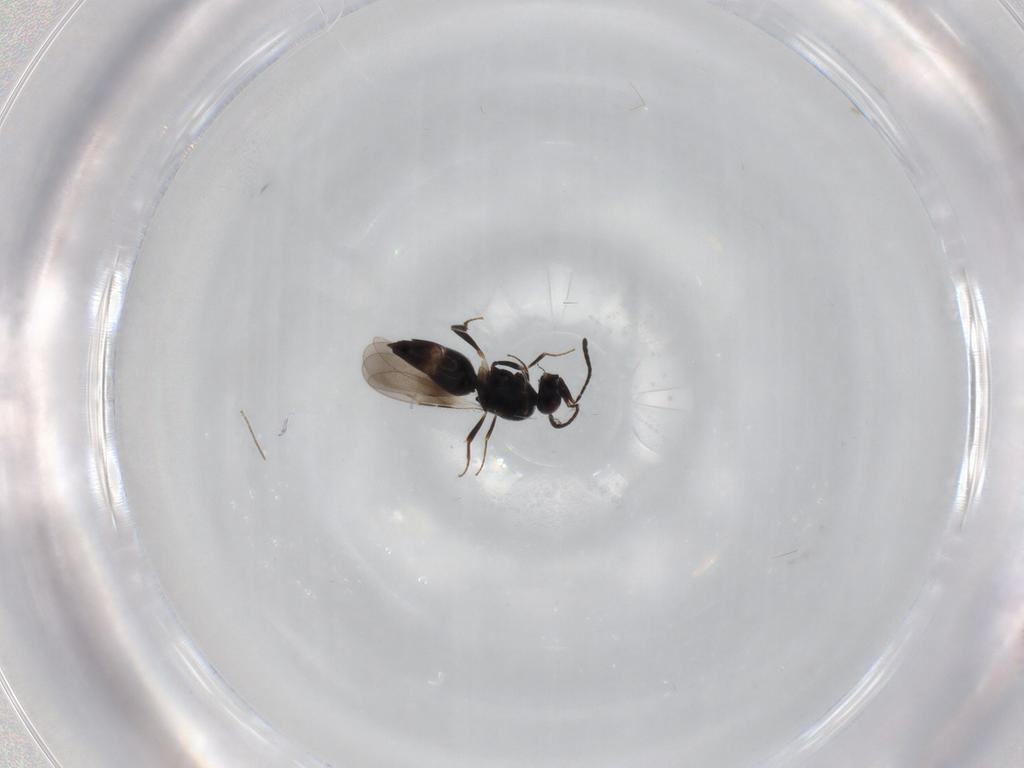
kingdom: Animalia
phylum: Arthropoda
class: Insecta
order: Hymenoptera
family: Ceraphronidae
